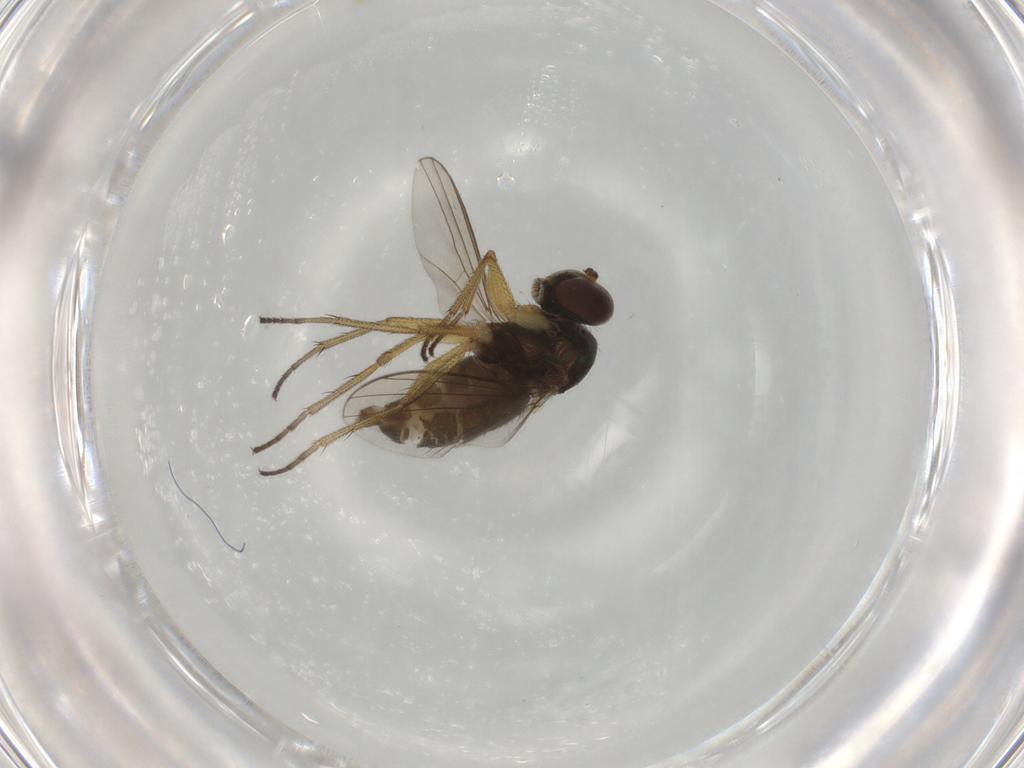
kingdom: Animalia
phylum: Arthropoda
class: Insecta
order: Diptera
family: Dolichopodidae
